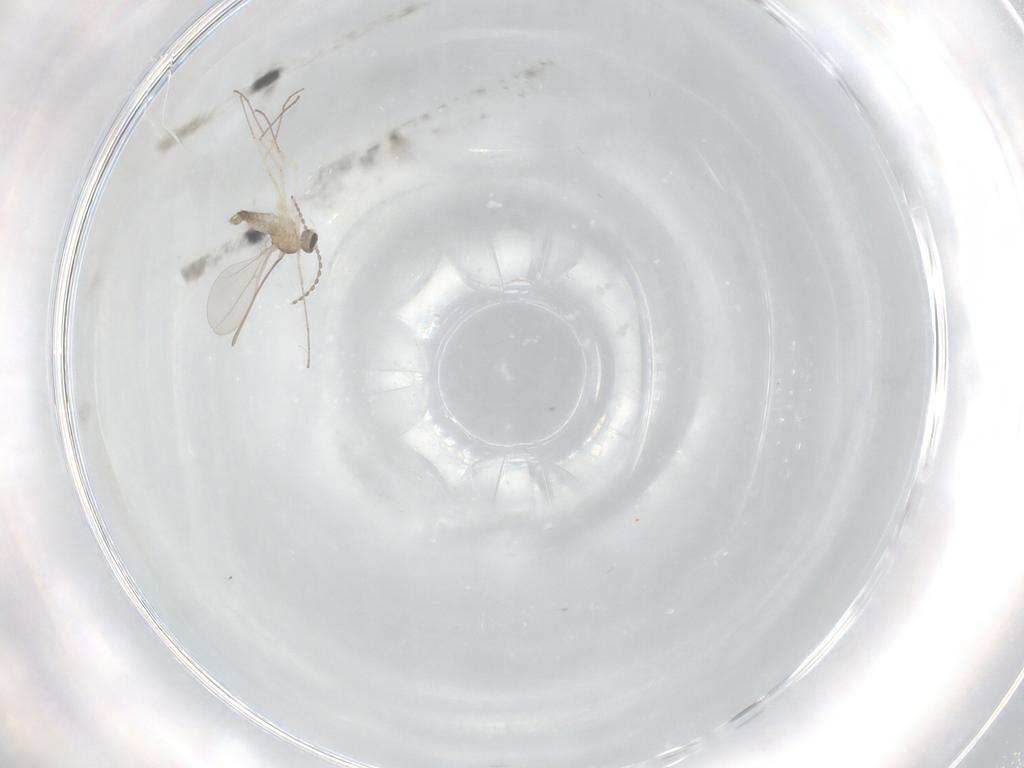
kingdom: Animalia
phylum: Arthropoda
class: Insecta
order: Diptera
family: Cecidomyiidae
